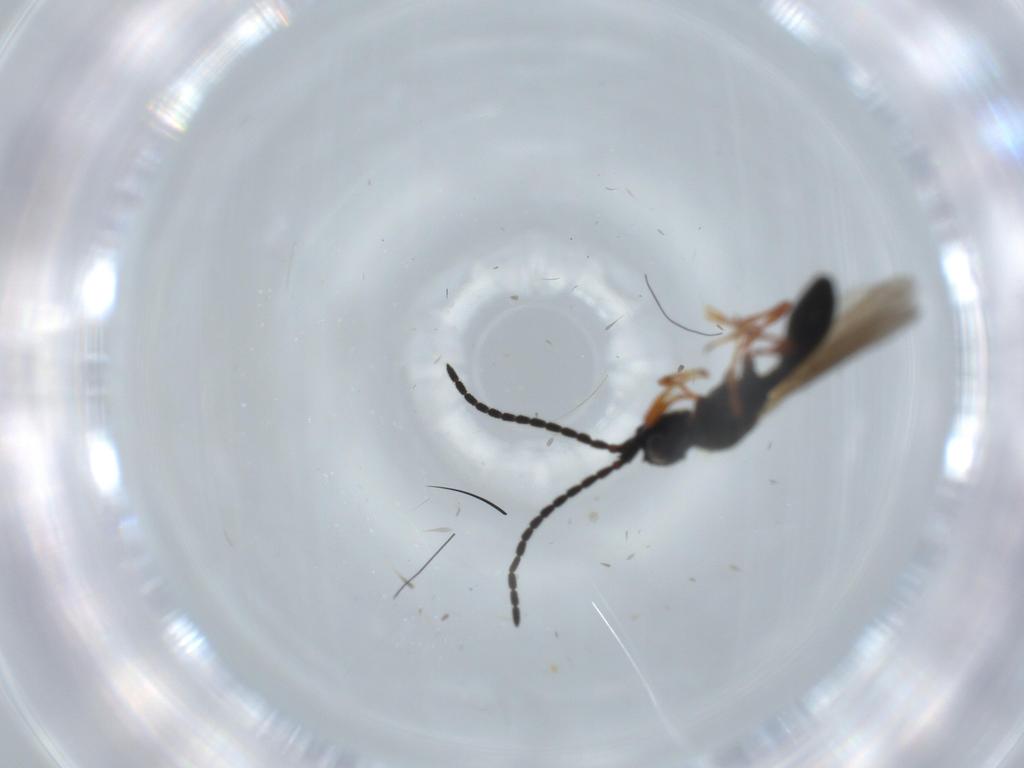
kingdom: Animalia
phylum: Arthropoda
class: Insecta
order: Hymenoptera
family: Diapriidae
